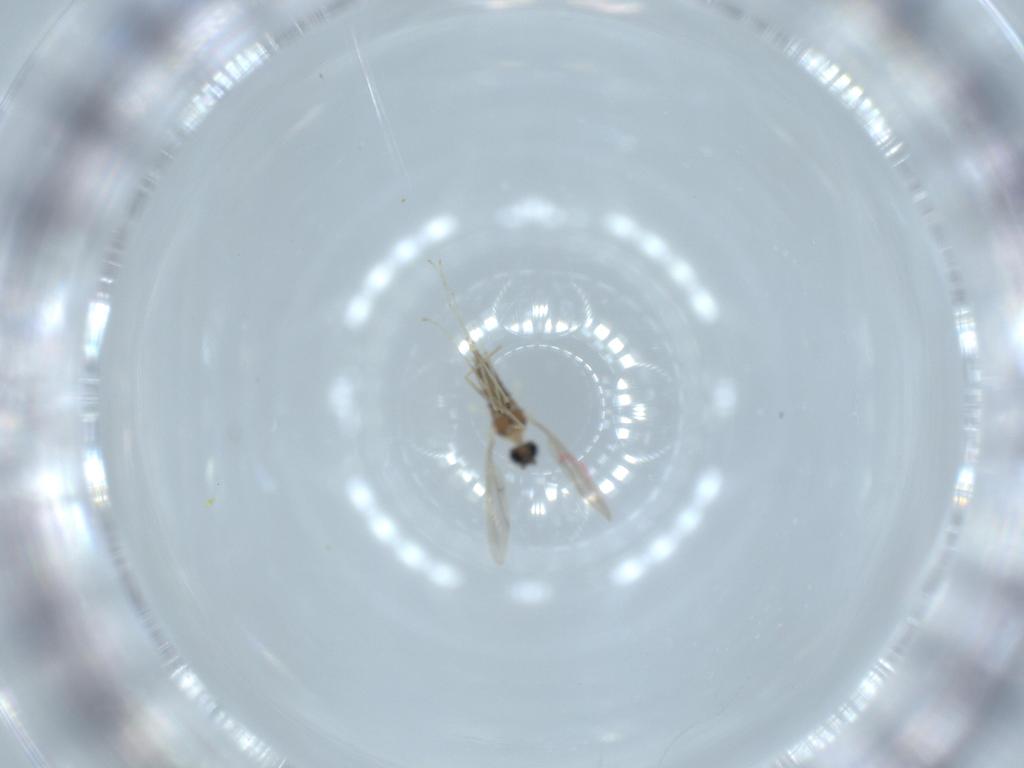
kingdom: Animalia
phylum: Arthropoda
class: Insecta
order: Diptera
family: Cecidomyiidae
